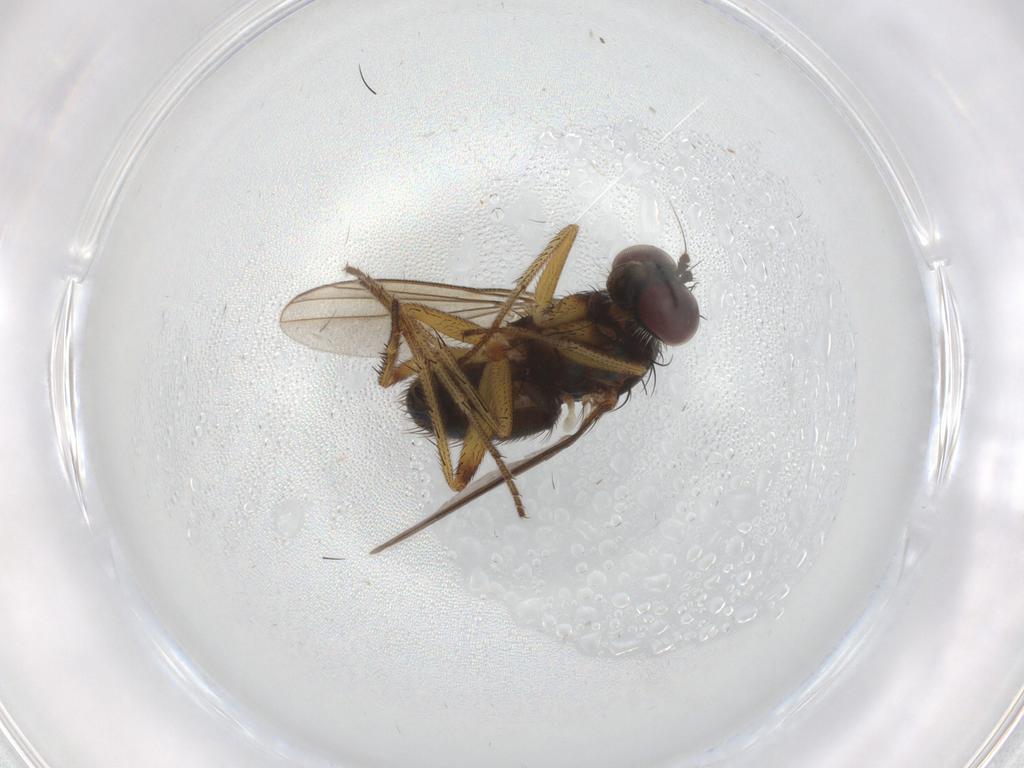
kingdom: Animalia
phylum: Arthropoda
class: Insecta
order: Diptera
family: Dolichopodidae
